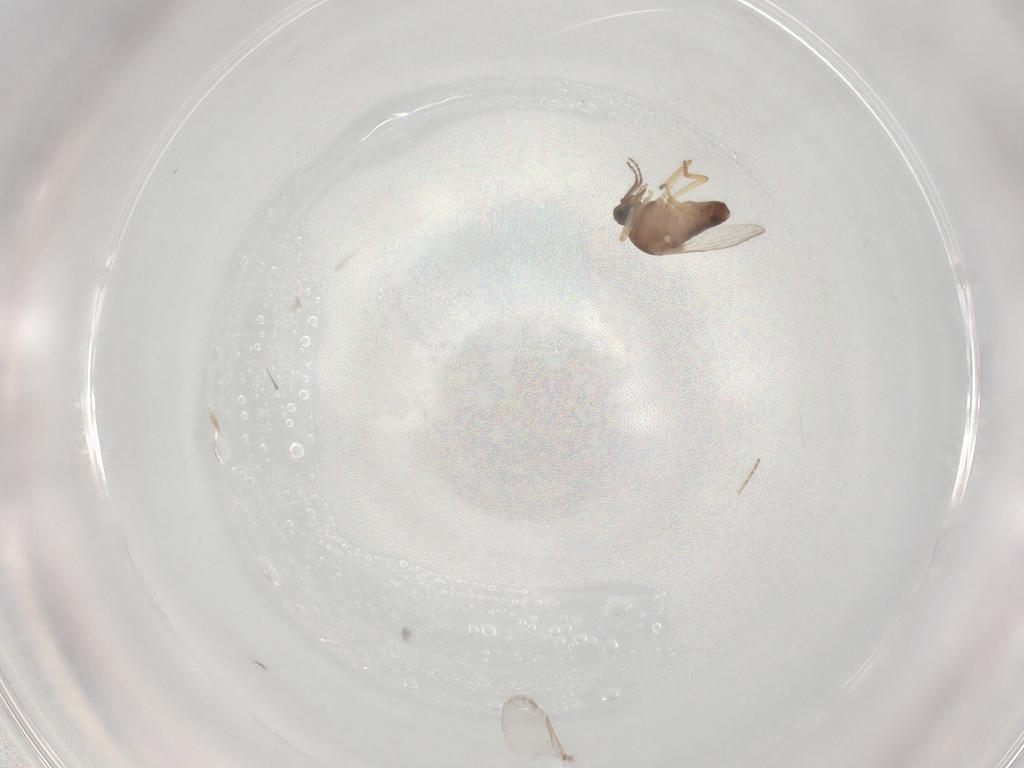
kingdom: Animalia
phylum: Arthropoda
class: Insecta
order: Diptera
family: Ceratopogonidae
